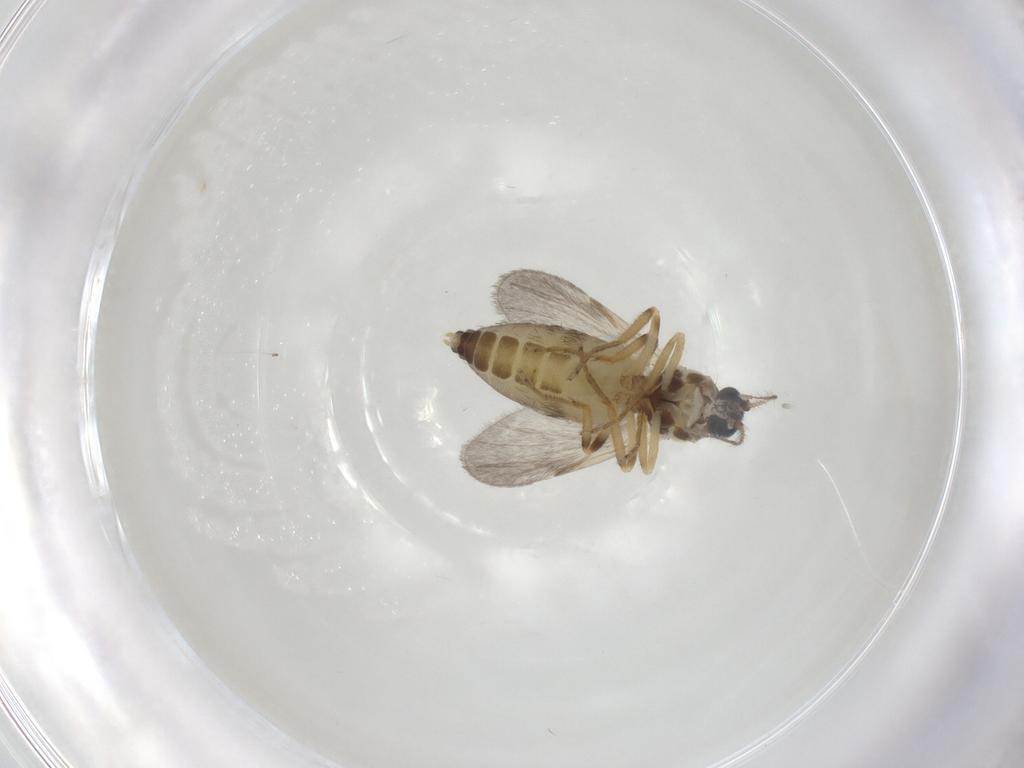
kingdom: Animalia
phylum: Arthropoda
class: Insecta
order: Diptera
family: Ceratopogonidae
